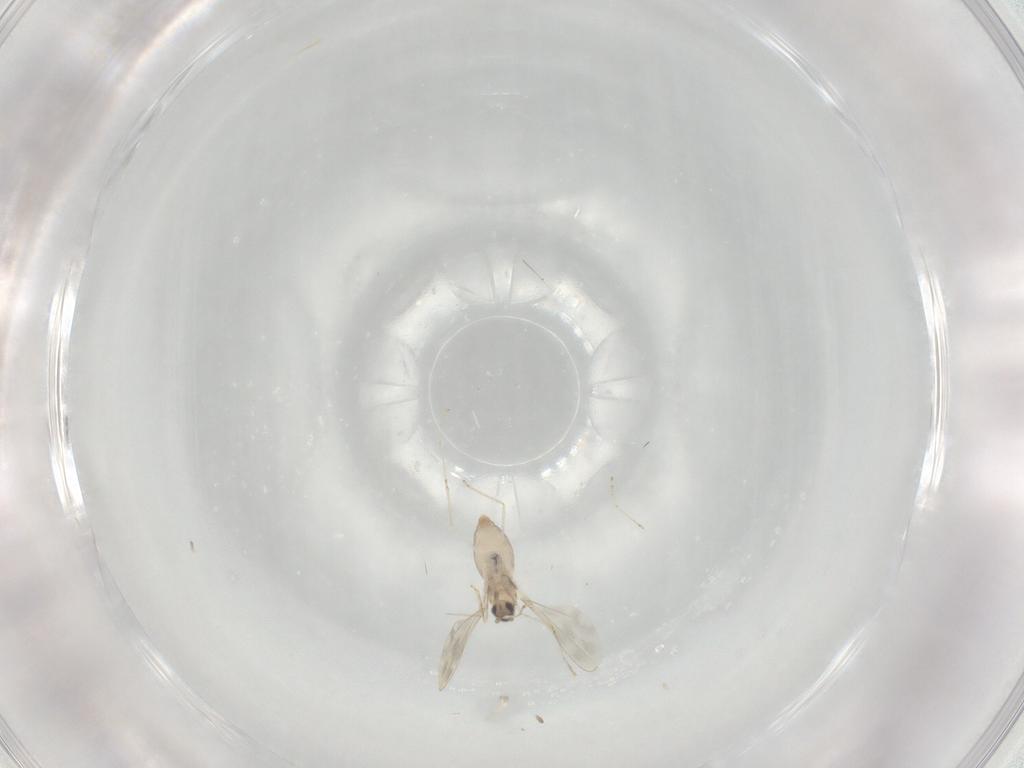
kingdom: Animalia
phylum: Arthropoda
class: Insecta
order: Diptera
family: Cecidomyiidae
